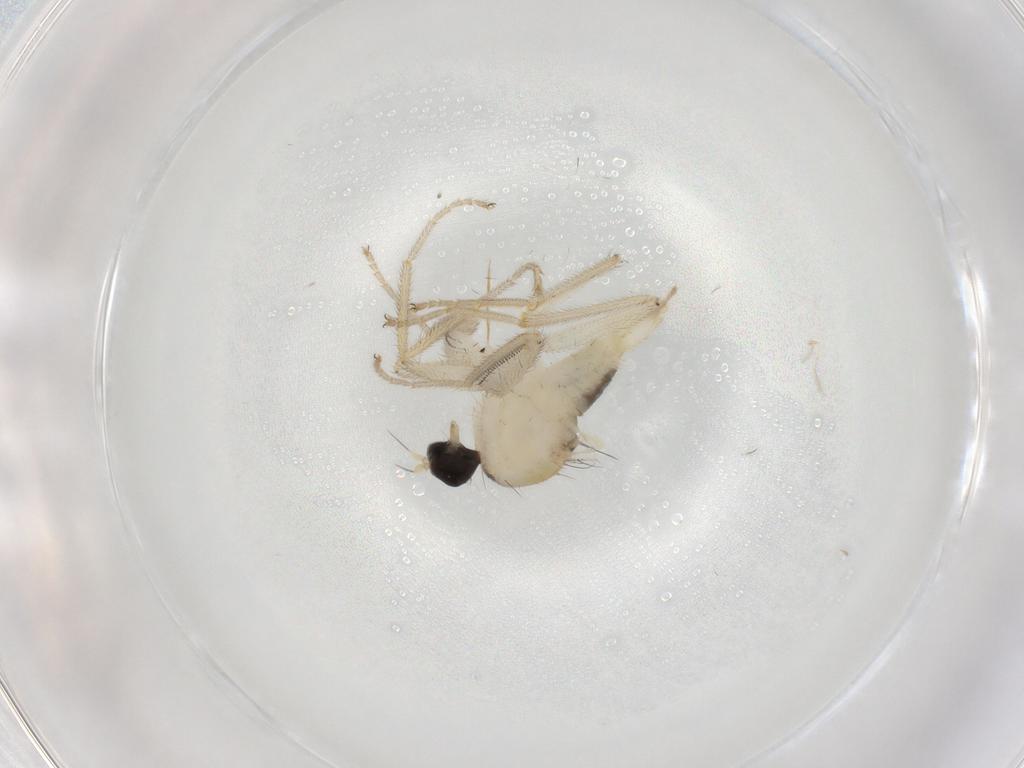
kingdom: Animalia
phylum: Arthropoda
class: Insecta
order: Diptera
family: Hybotidae
